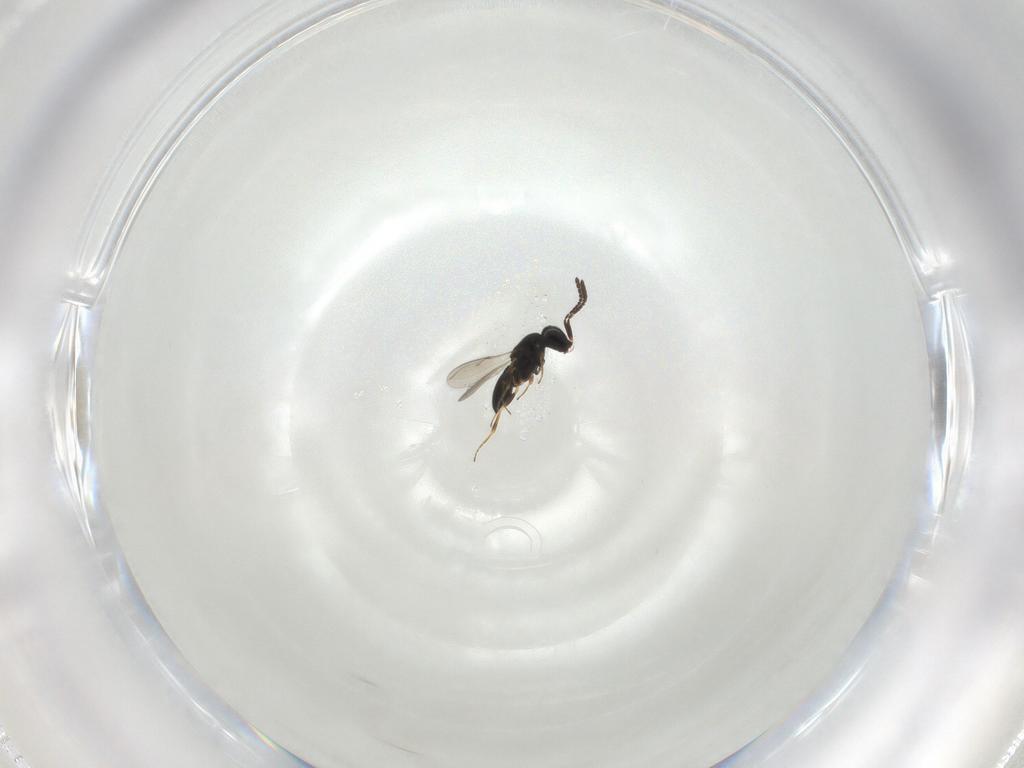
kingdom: Animalia
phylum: Arthropoda
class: Insecta
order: Hymenoptera
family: Scelionidae
